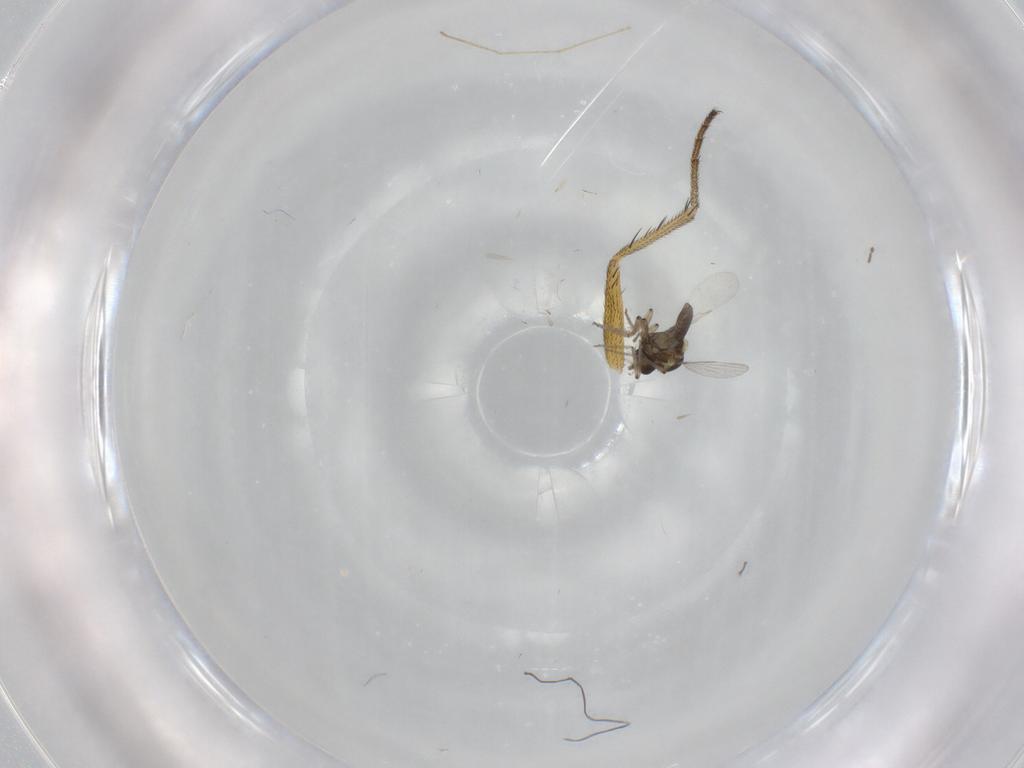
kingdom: Animalia
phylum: Arthropoda
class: Insecta
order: Diptera
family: Ceratopogonidae
